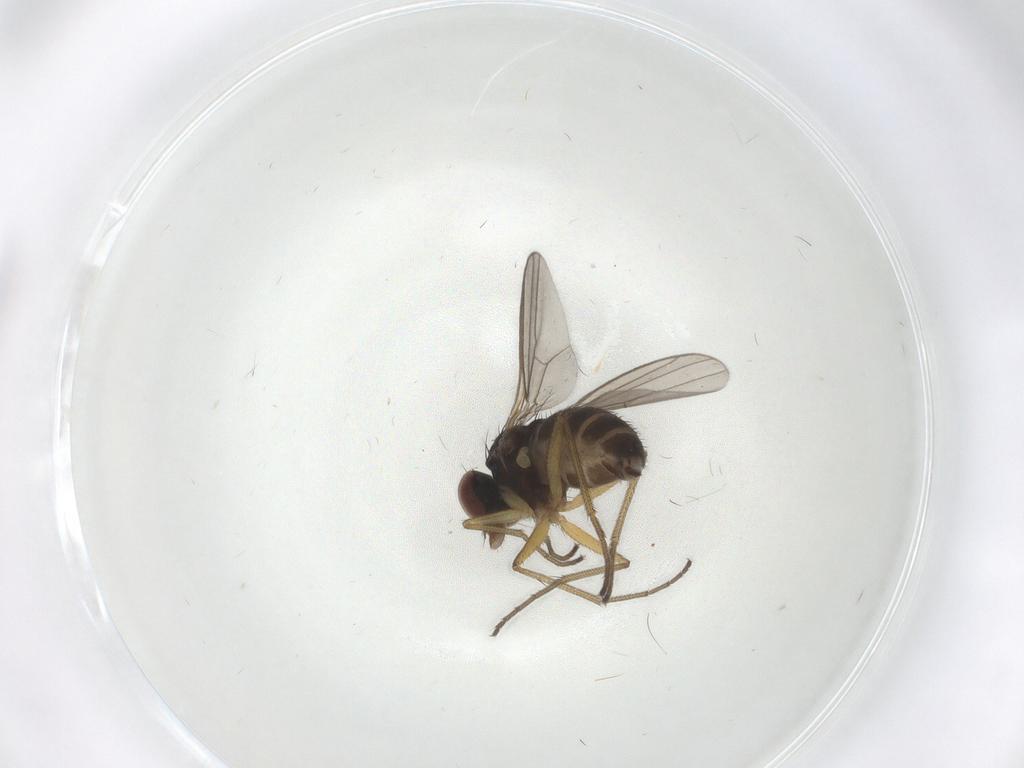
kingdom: Animalia
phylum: Arthropoda
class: Insecta
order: Diptera
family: Dolichopodidae
